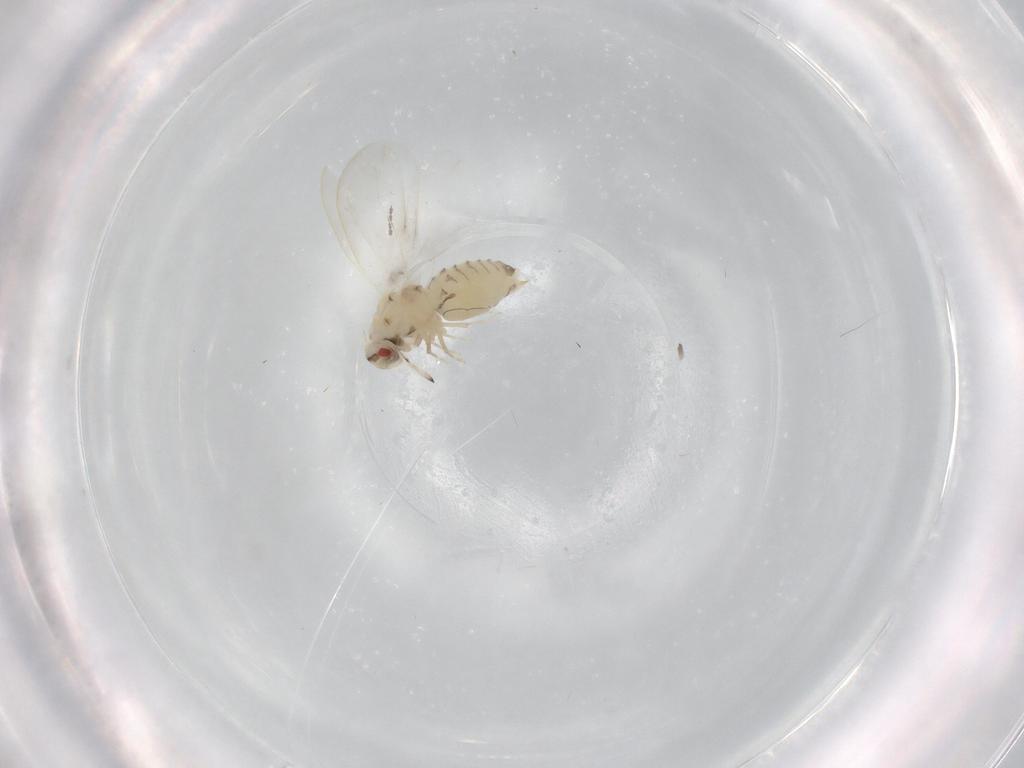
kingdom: Animalia
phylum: Arthropoda
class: Insecta
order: Hemiptera
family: Aleyrodidae
